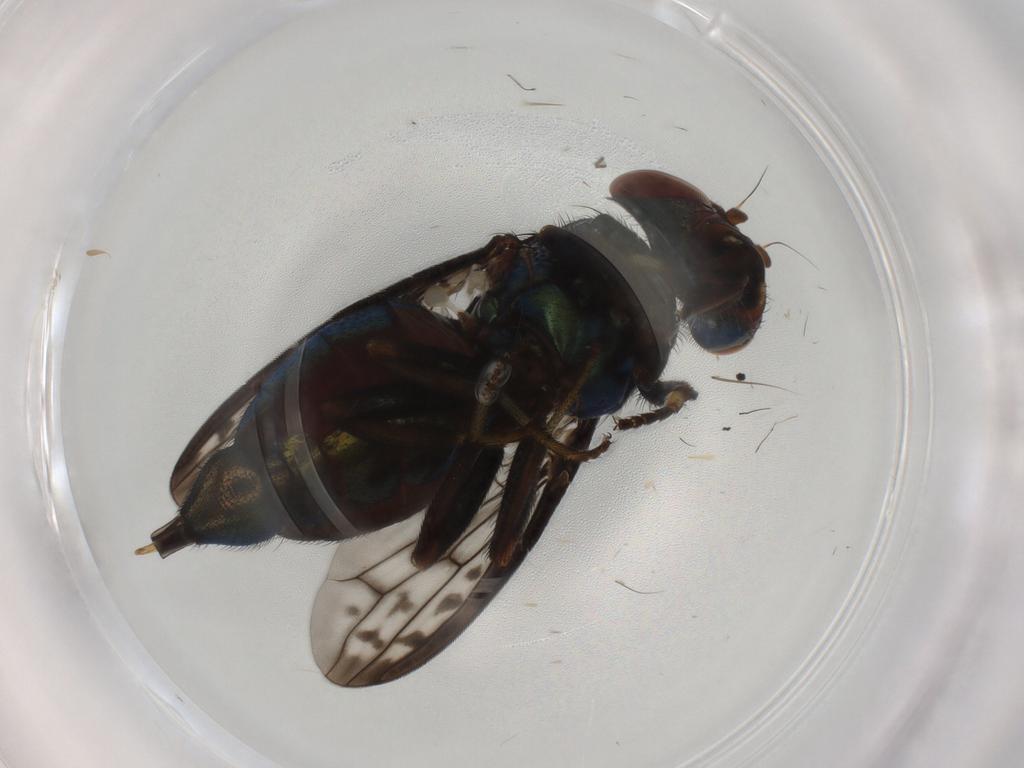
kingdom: Animalia
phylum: Arthropoda
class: Insecta
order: Diptera
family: Ulidiidae
